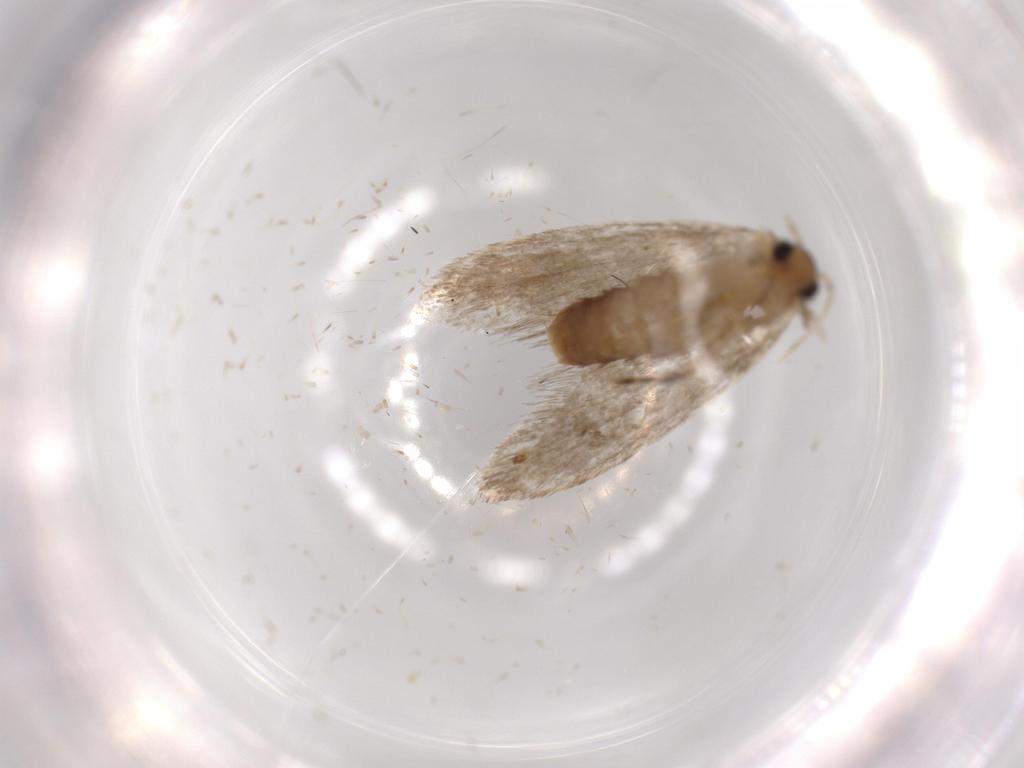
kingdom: Animalia
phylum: Arthropoda
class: Insecta
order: Lepidoptera
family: Tineidae
